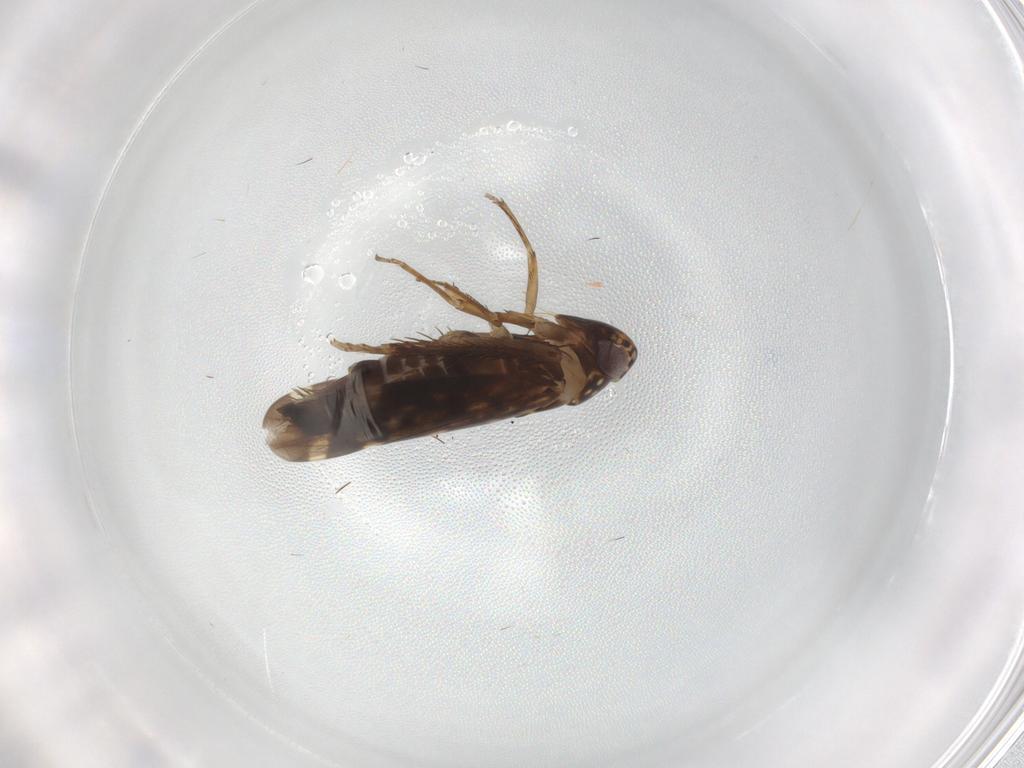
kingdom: Animalia
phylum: Arthropoda
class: Insecta
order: Hemiptera
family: Cicadellidae
